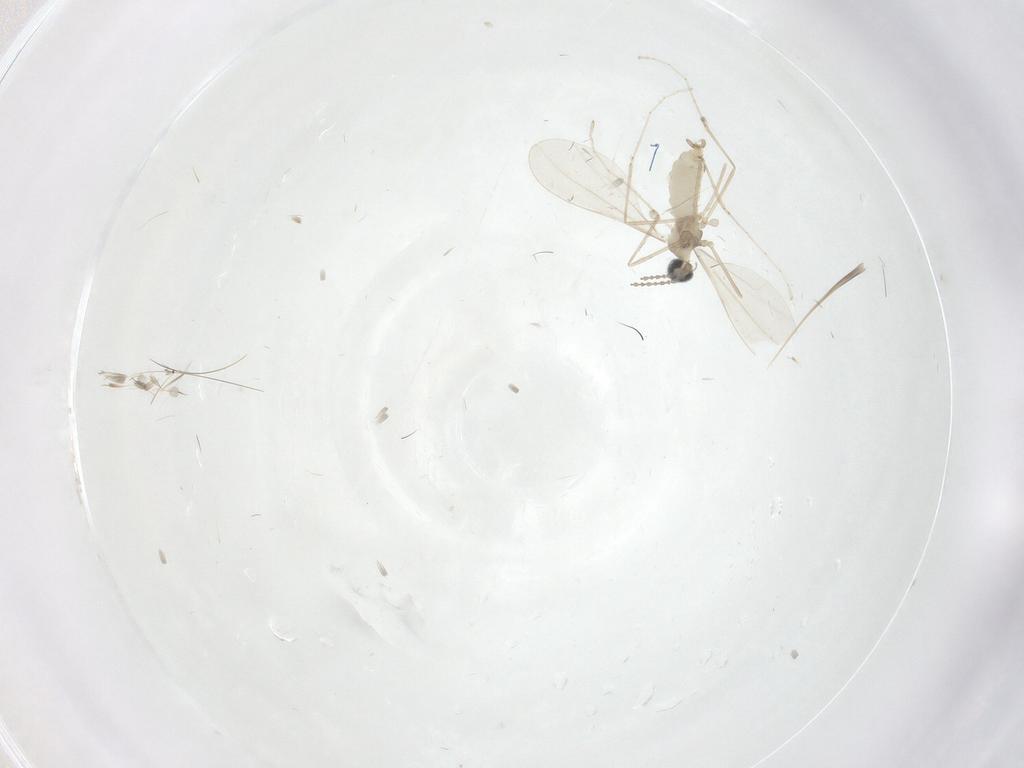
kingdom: Animalia
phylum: Arthropoda
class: Insecta
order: Diptera
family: Cecidomyiidae
